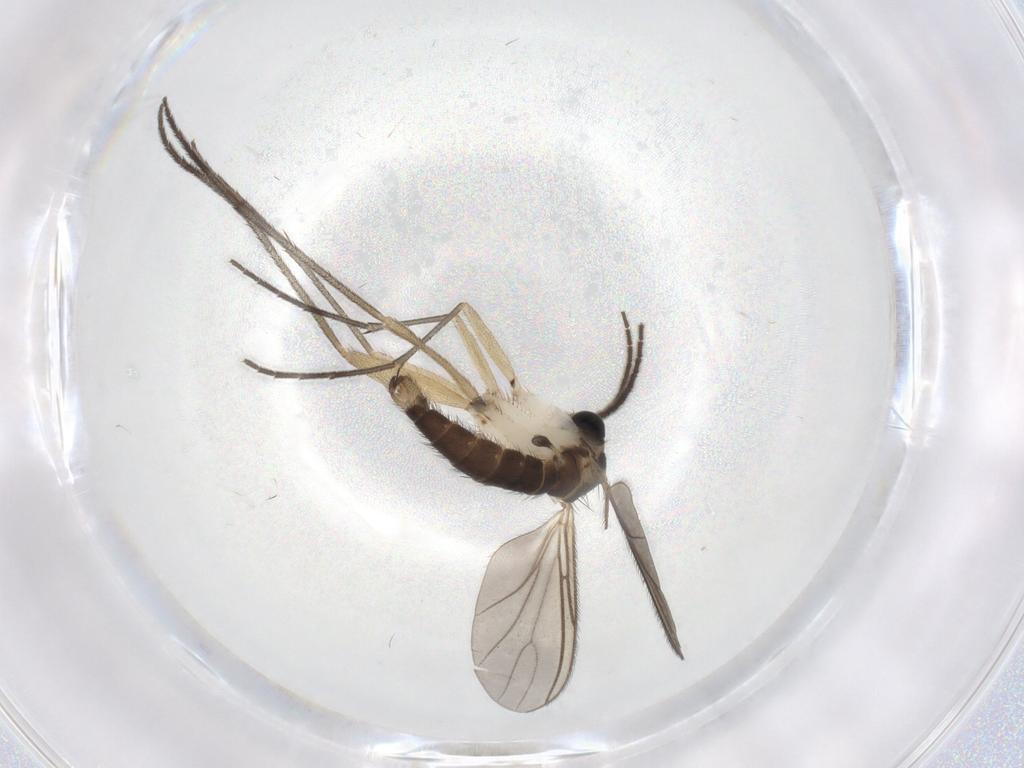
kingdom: Animalia
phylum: Arthropoda
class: Insecta
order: Diptera
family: Sciaridae
